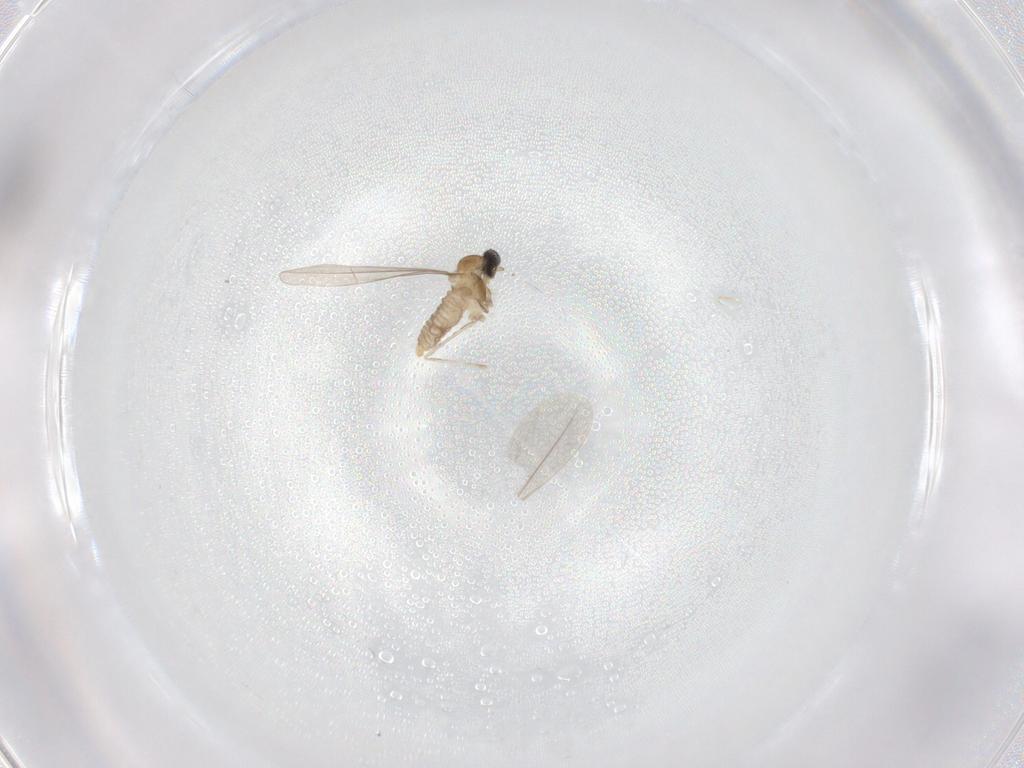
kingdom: Animalia
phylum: Arthropoda
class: Insecta
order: Diptera
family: Cecidomyiidae
